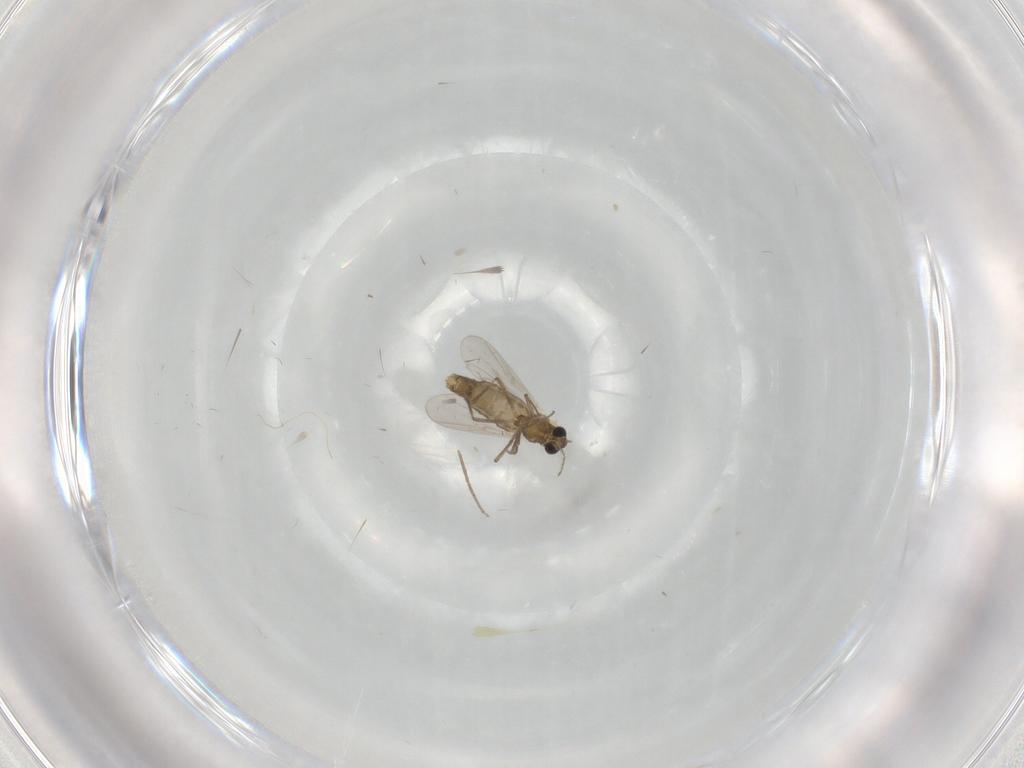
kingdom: Animalia
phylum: Arthropoda
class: Insecta
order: Diptera
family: Chironomidae
